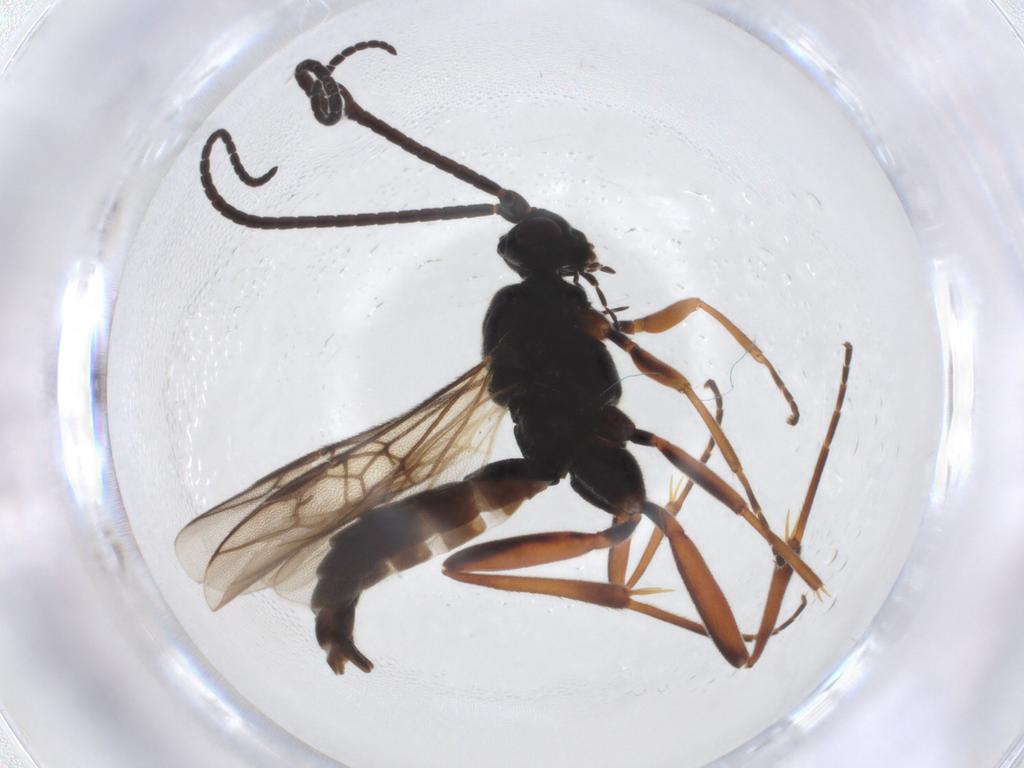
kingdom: Animalia
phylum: Arthropoda
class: Insecta
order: Hymenoptera
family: Braconidae
